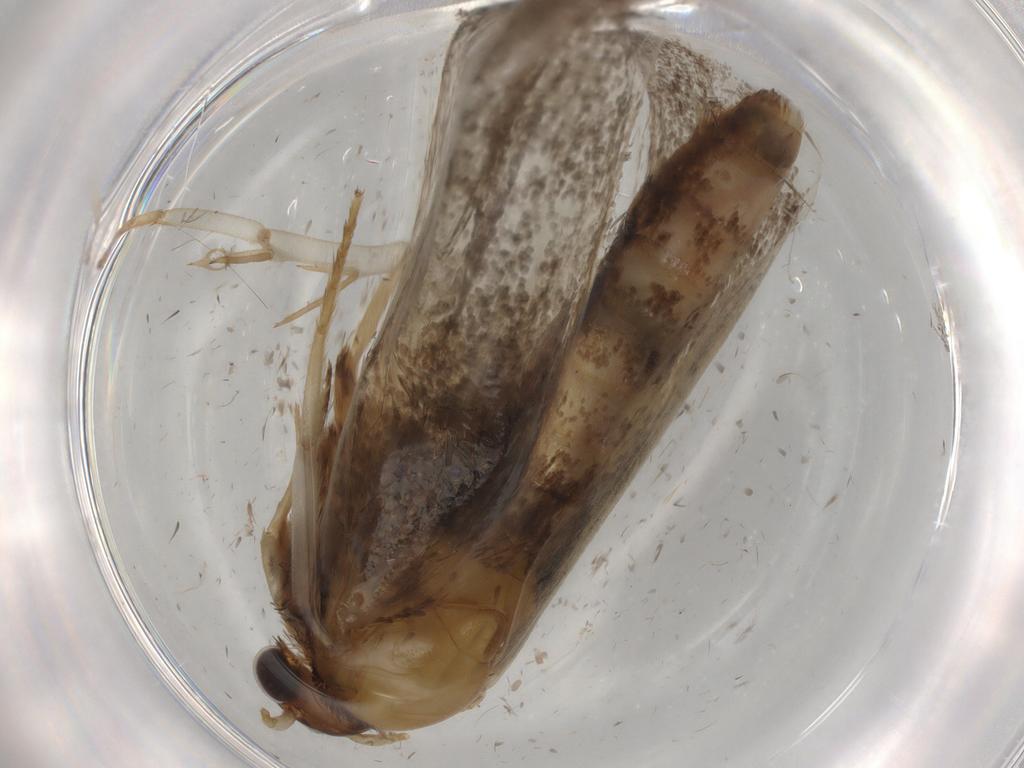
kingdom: Animalia
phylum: Arthropoda
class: Insecta
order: Lepidoptera
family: Tineidae
